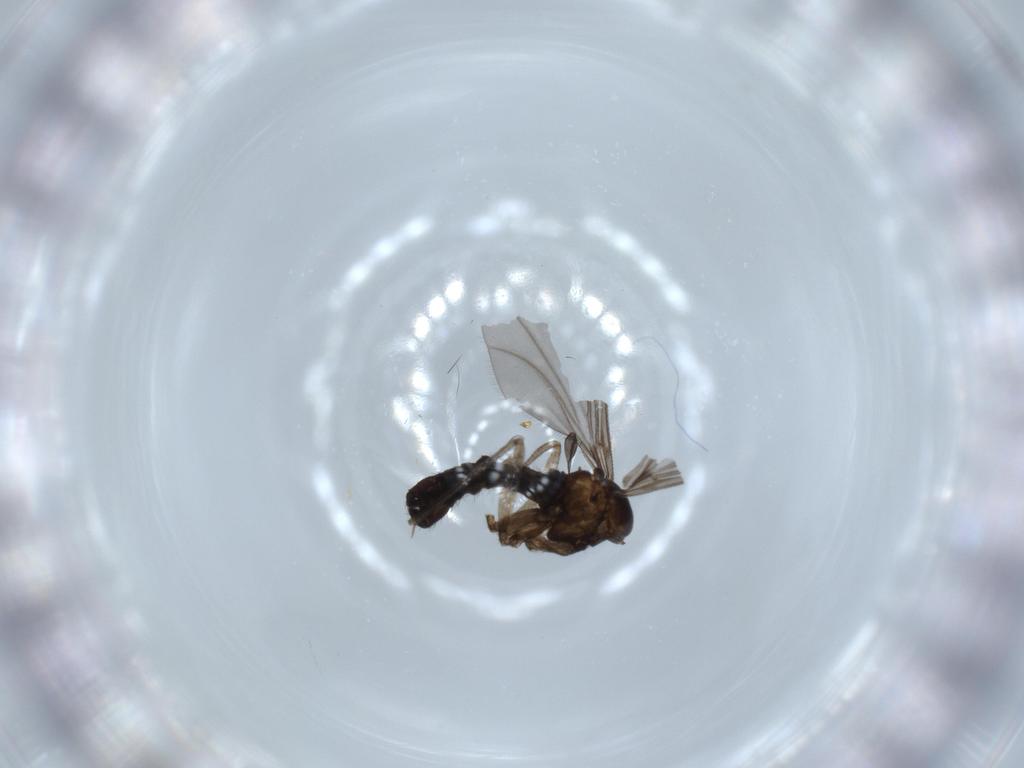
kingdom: Animalia
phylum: Arthropoda
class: Insecta
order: Diptera
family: Sciaridae
